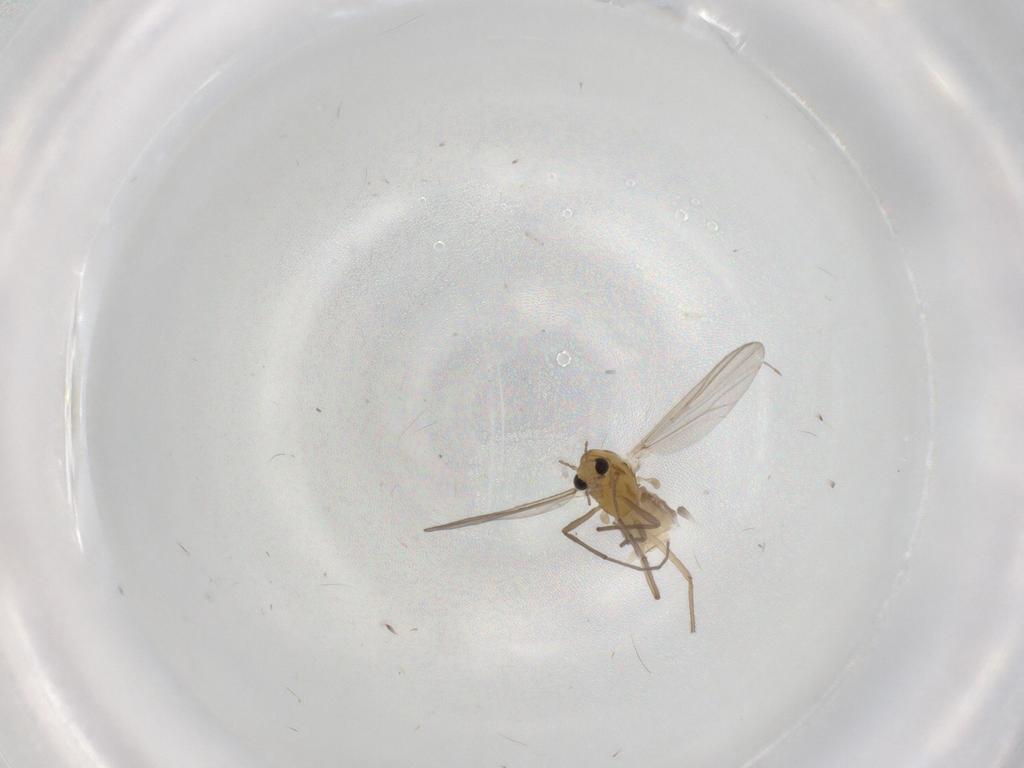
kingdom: Animalia
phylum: Arthropoda
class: Insecta
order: Diptera
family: Chironomidae
